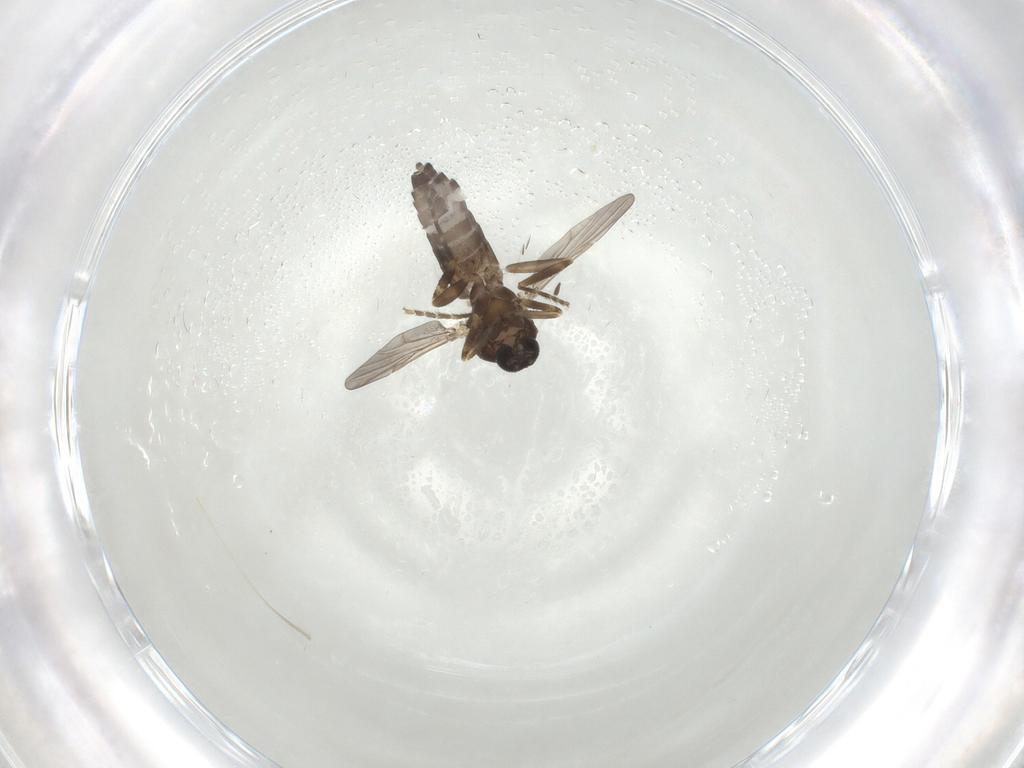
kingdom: Animalia
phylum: Arthropoda
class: Insecta
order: Diptera
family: Ceratopogonidae
